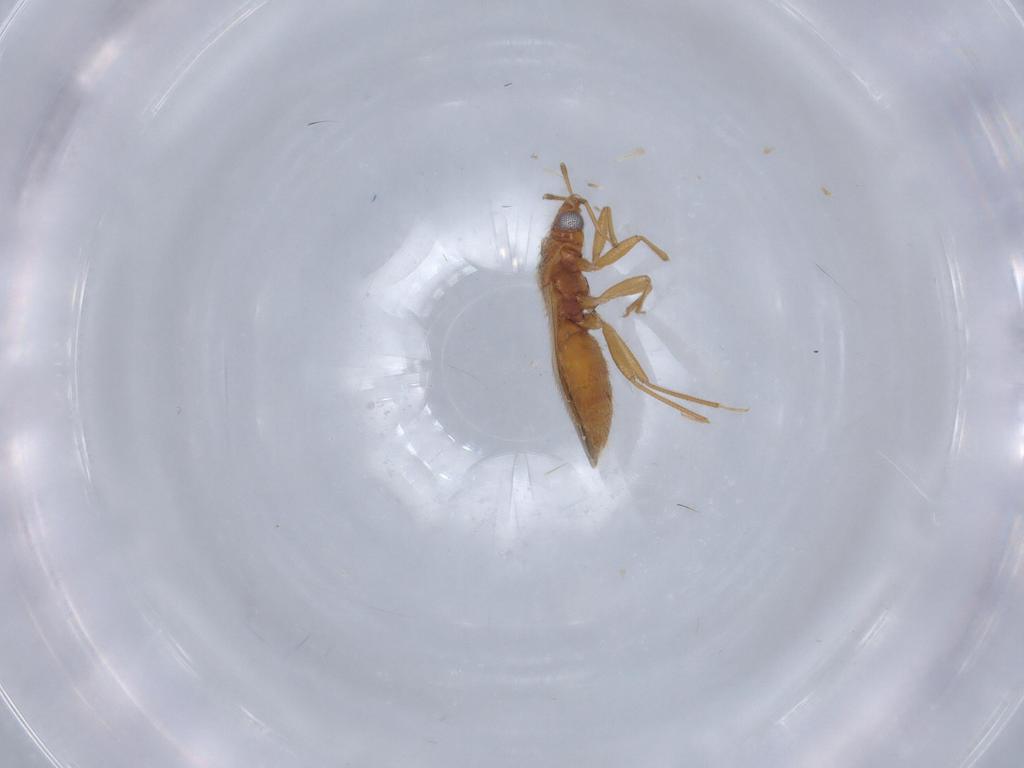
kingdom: Animalia
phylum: Arthropoda
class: Insecta
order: Hemiptera
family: Anthocoridae
